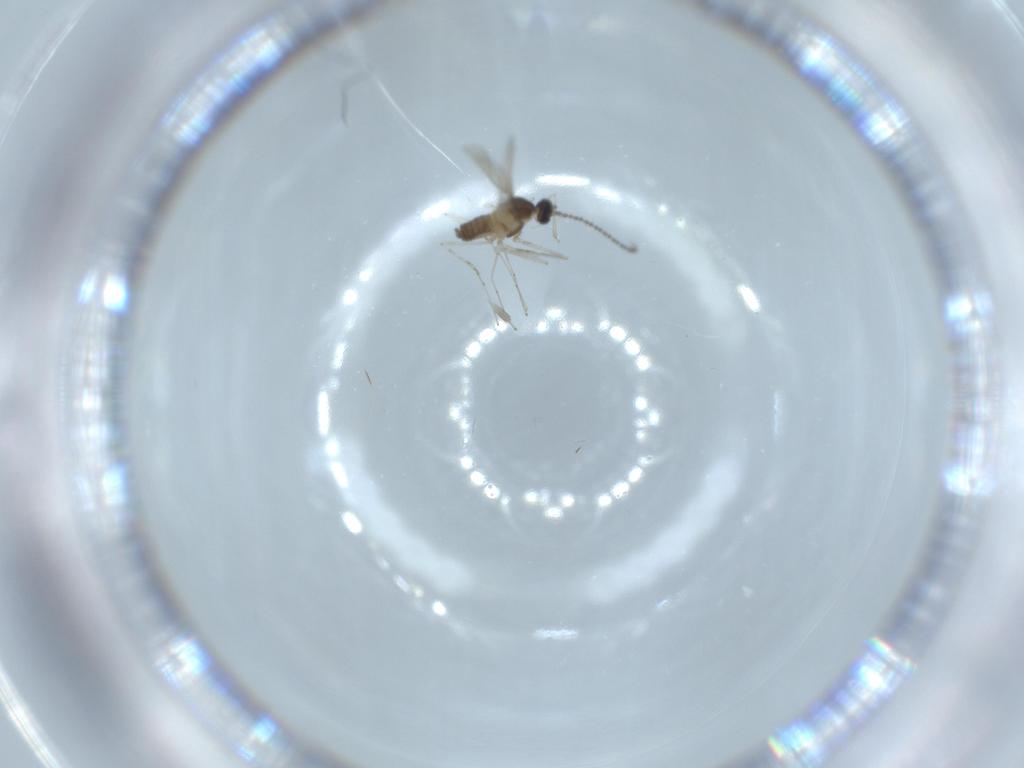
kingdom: Animalia
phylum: Arthropoda
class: Insecta
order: Diptera
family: Cecidomyiidae
